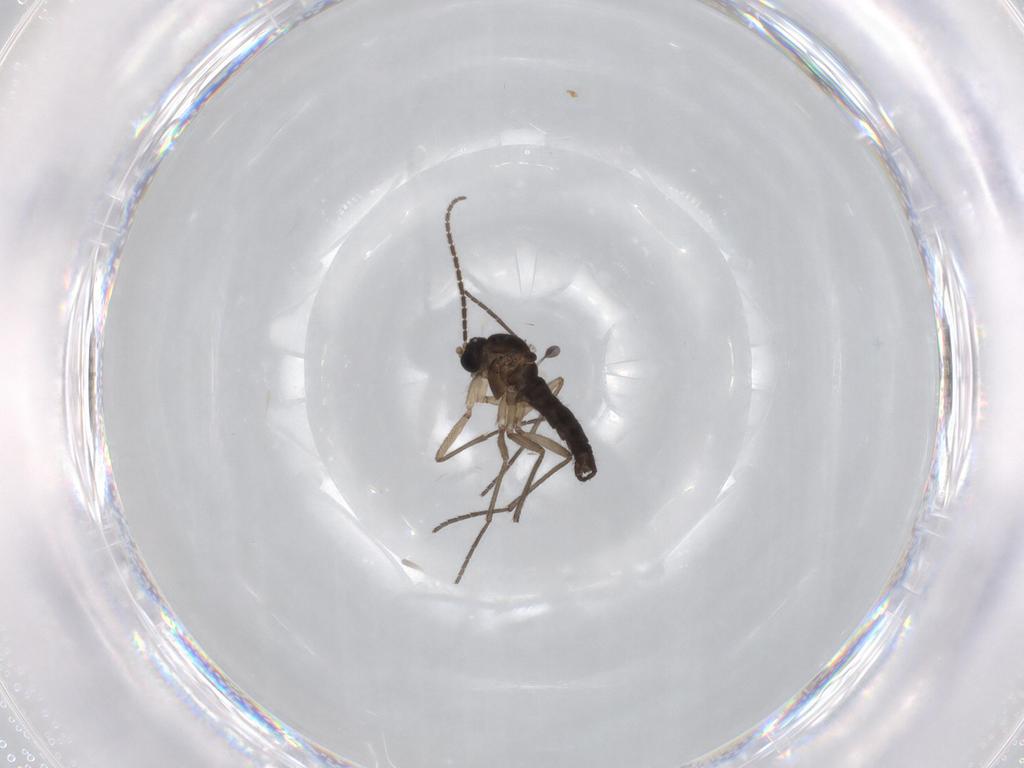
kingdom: Animalia
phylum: Arthropoda
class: Insecta
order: Diptera
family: Sciaridae
